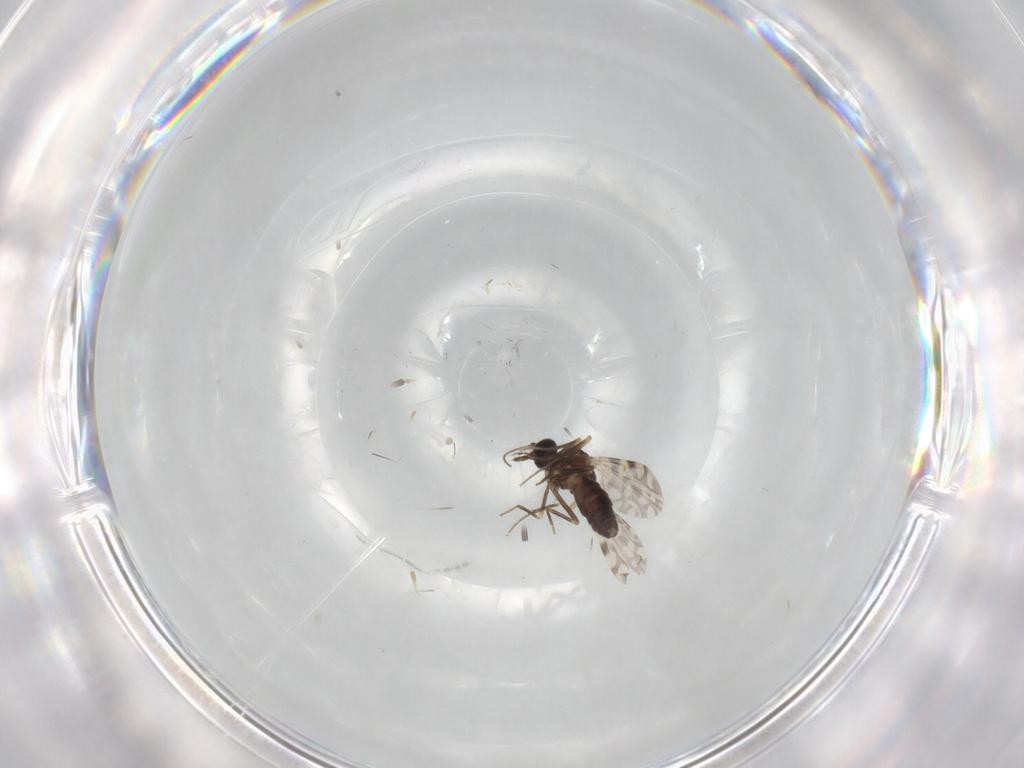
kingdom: Animalia
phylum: Arthropoda
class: Insecta
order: Diptera
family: Ceratopogonidae
